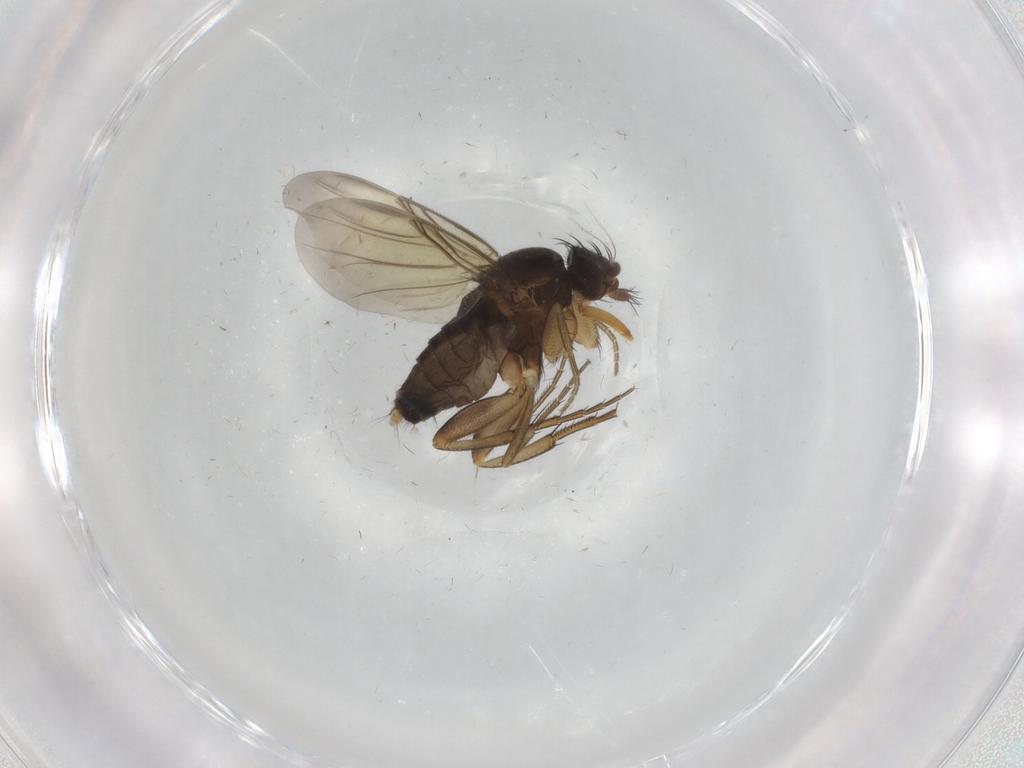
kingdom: Animalia
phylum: Arthropoda
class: Insecta
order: Diptera
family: Phoridae
